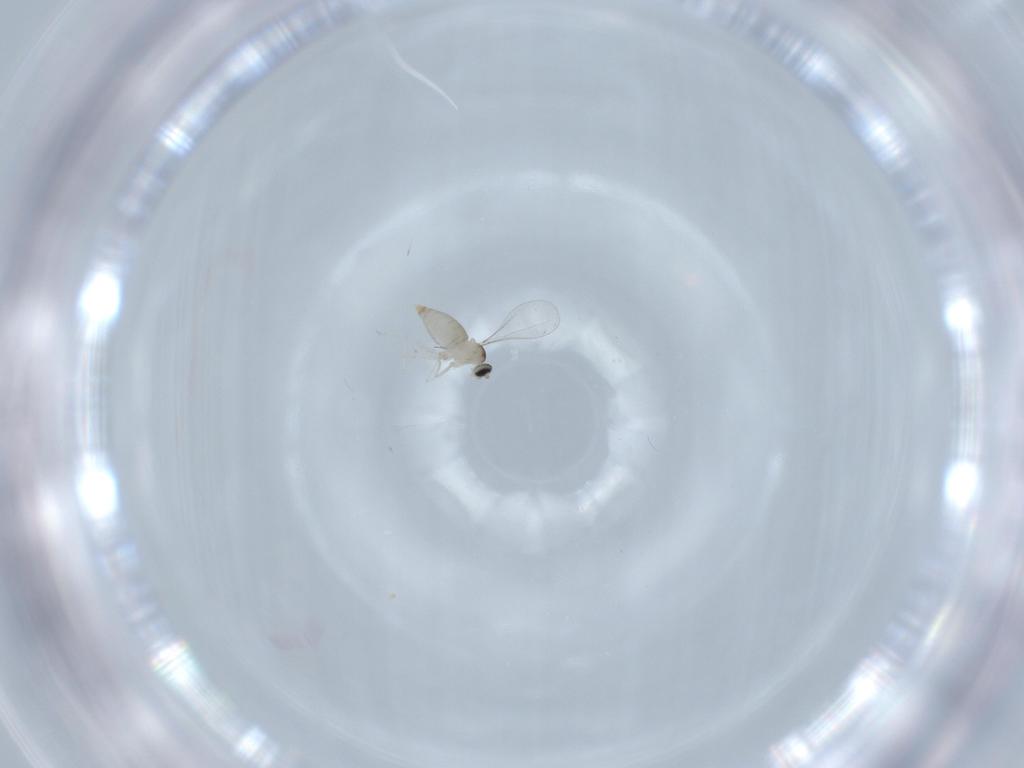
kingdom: Animalia
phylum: Arthropoda
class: Insecta
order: Diptera
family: Cecidomyiidae
